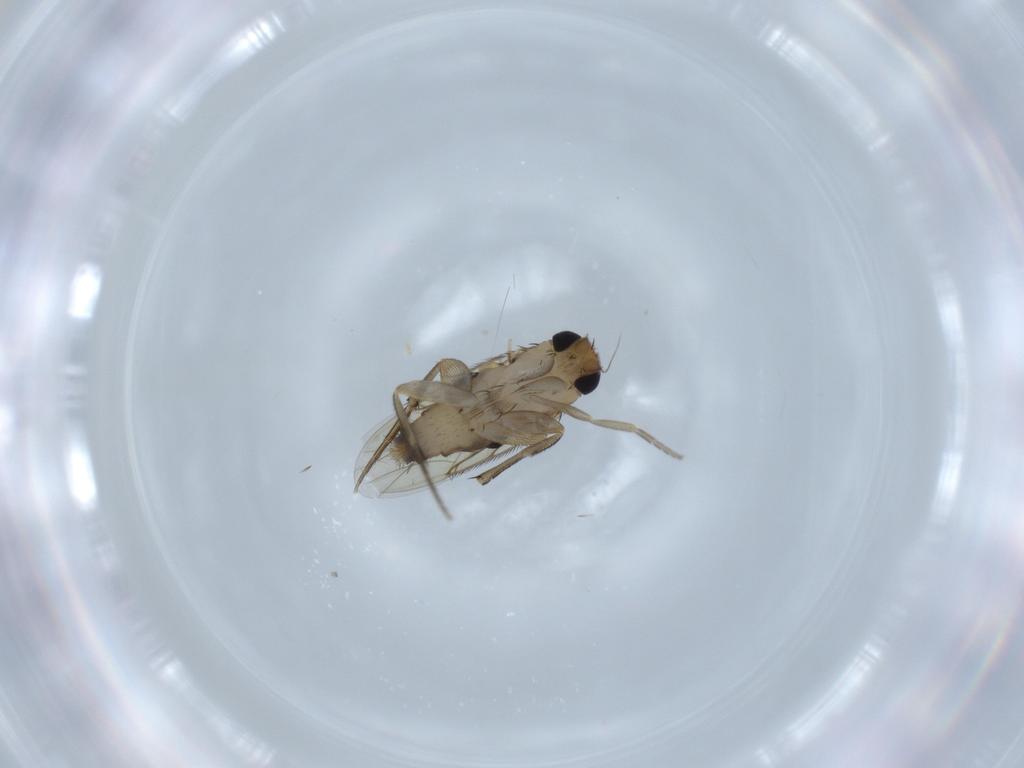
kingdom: Animalia
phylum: Arthropoda
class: Insecta
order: Diptera
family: Phoridae
